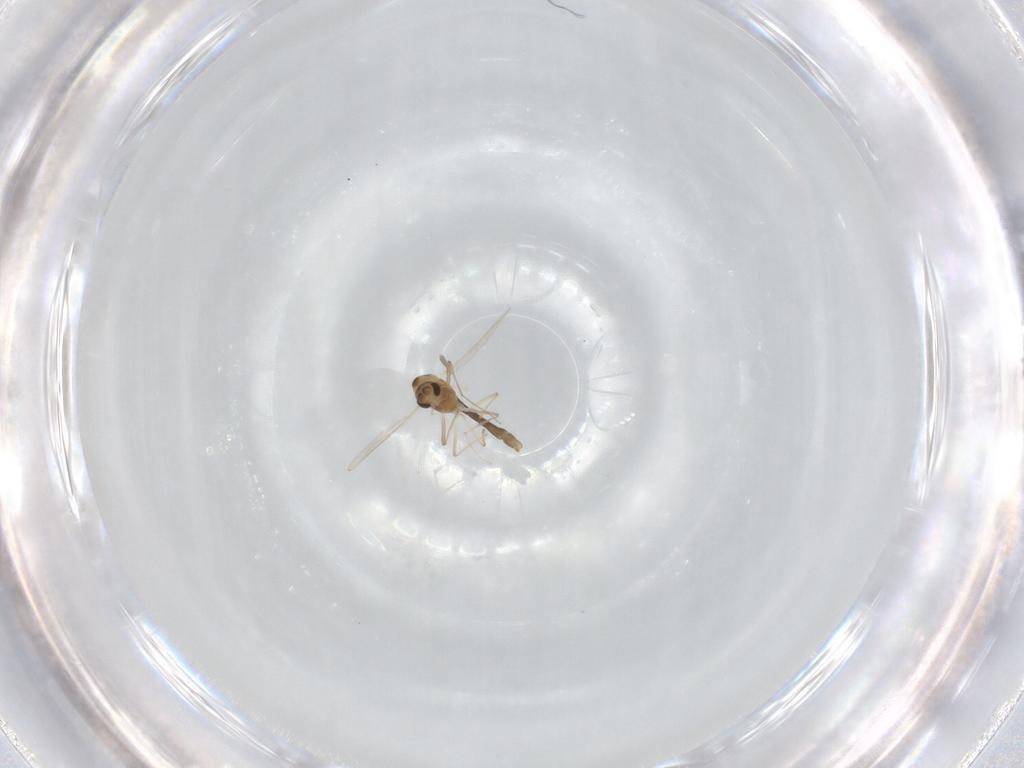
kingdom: Animalia
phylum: Arthropoda
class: Insecta
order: Diptera
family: Chironomidae
